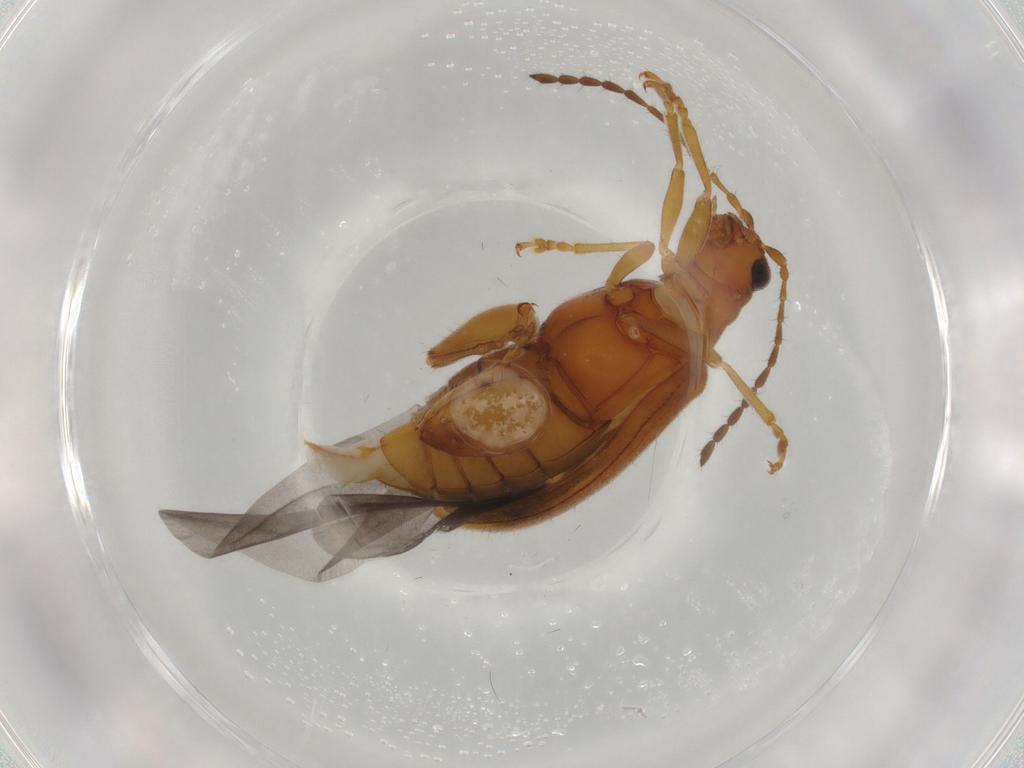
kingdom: Animalia
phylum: Arthropoda
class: Insecta
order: Coleoptera
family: Chrysomelidae
